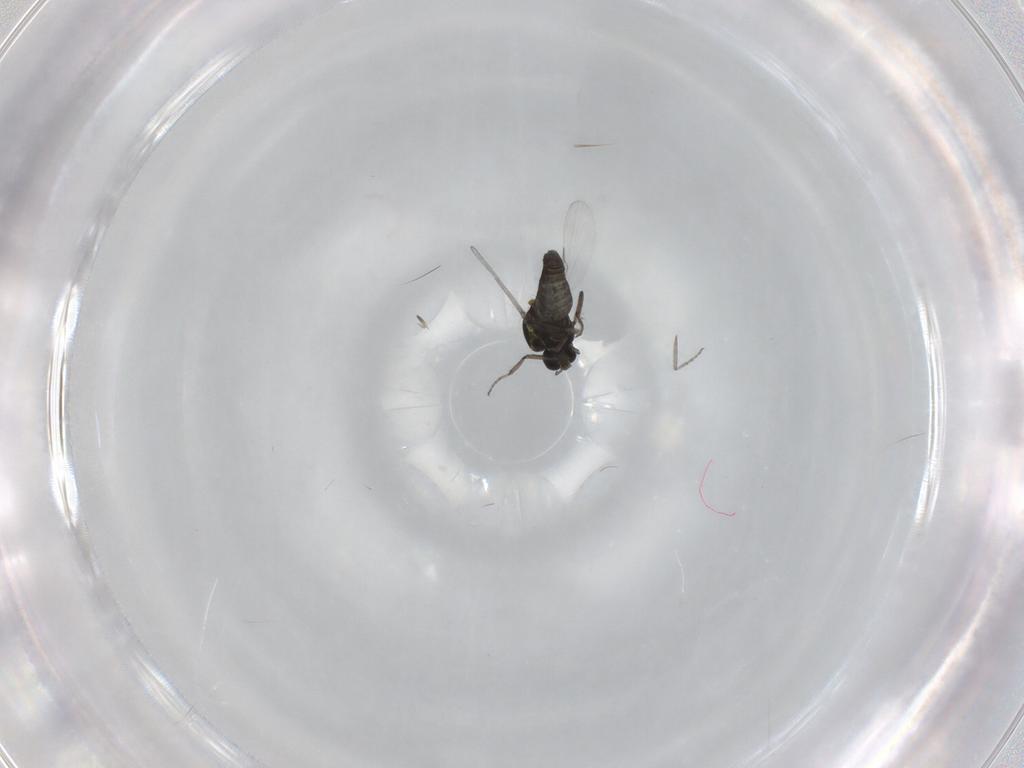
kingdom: Animalia
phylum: Arthropoda
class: Insecta
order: Diptera
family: Ceratopogonidae
